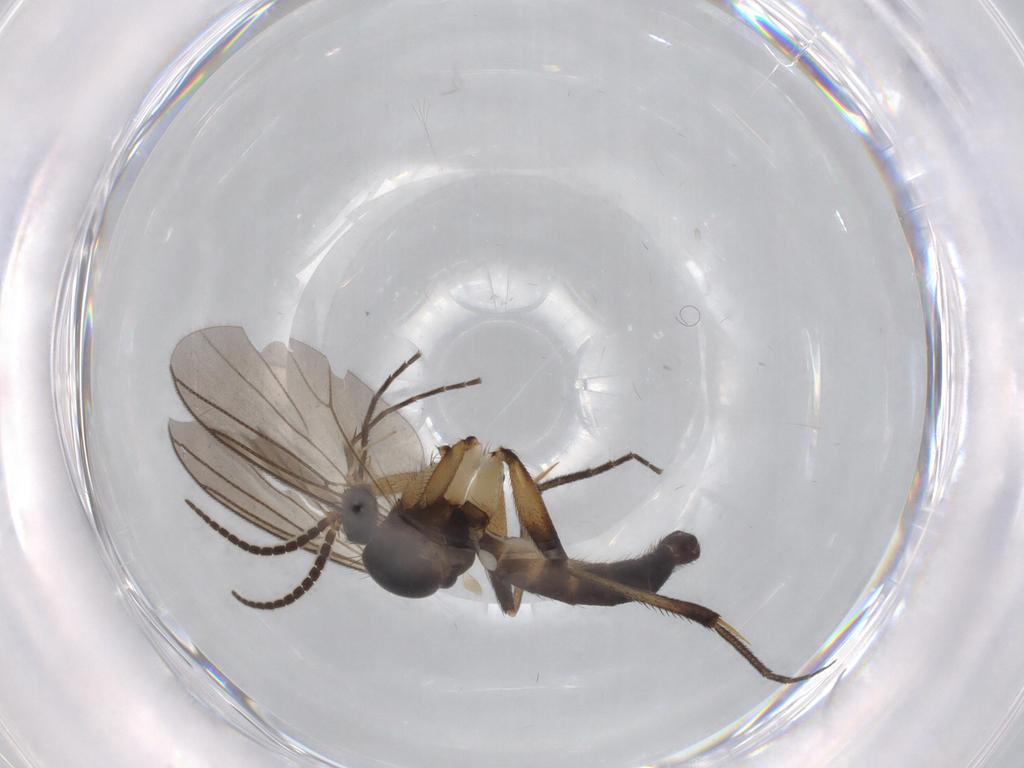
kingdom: Animalia
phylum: Arthropoda
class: Insecta
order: Diptera
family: Mycetophilidae
